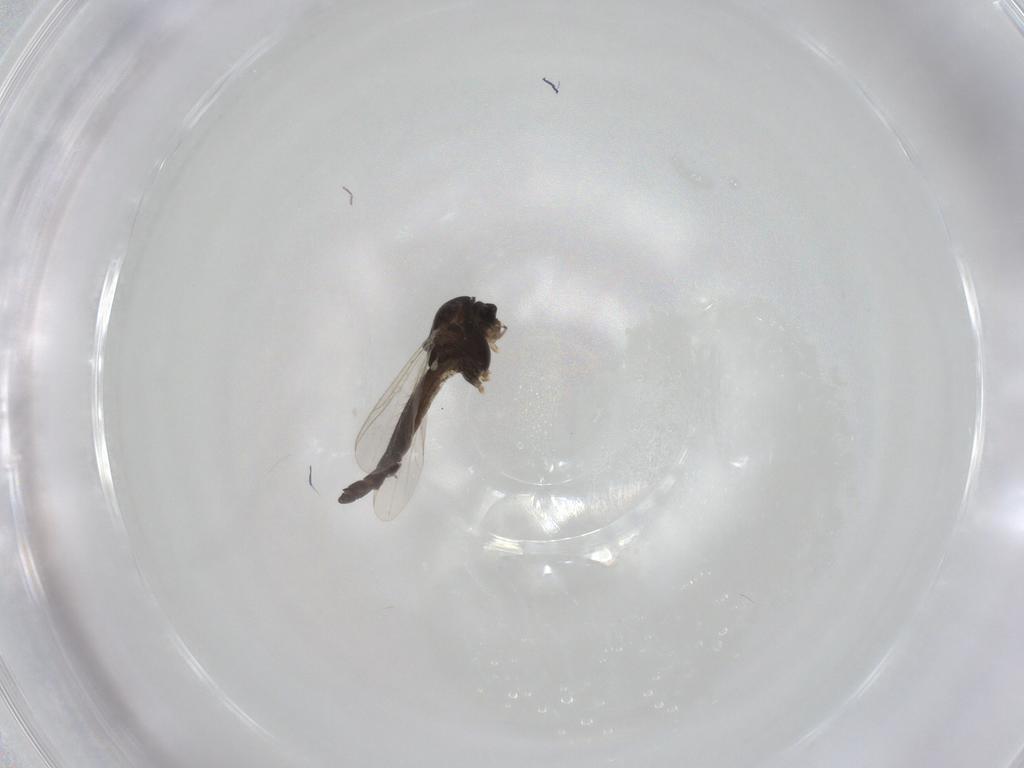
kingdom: Animalia
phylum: Arthropoda
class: Insecta
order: Diptera
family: Chironomidae
